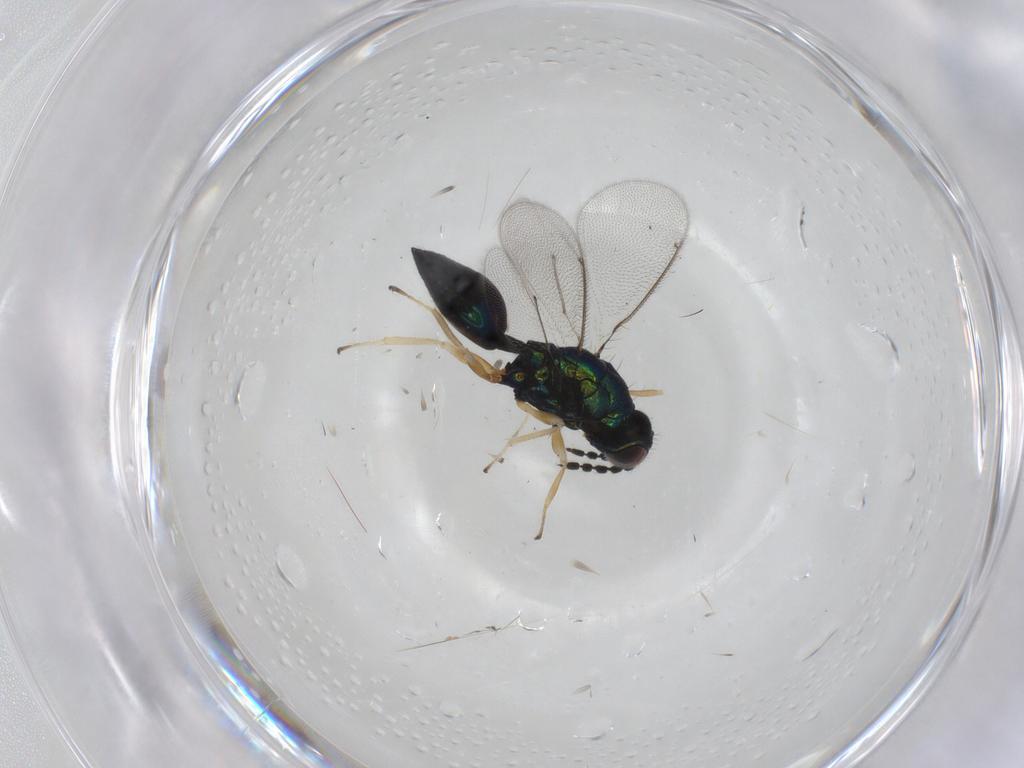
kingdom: Animalia
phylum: Arthropoda
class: Insecta
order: Hymenoptera
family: Eulophidae
